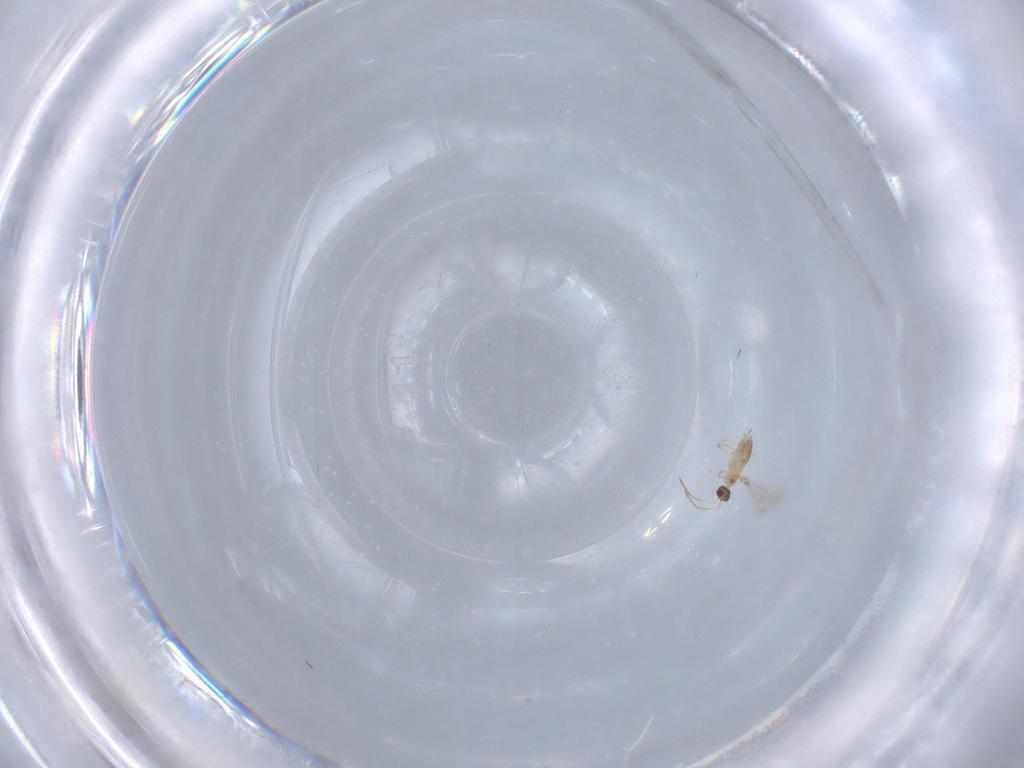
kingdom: Animalia
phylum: Arthropoda
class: Insecta
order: Hymenoptera
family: Mymaridae
